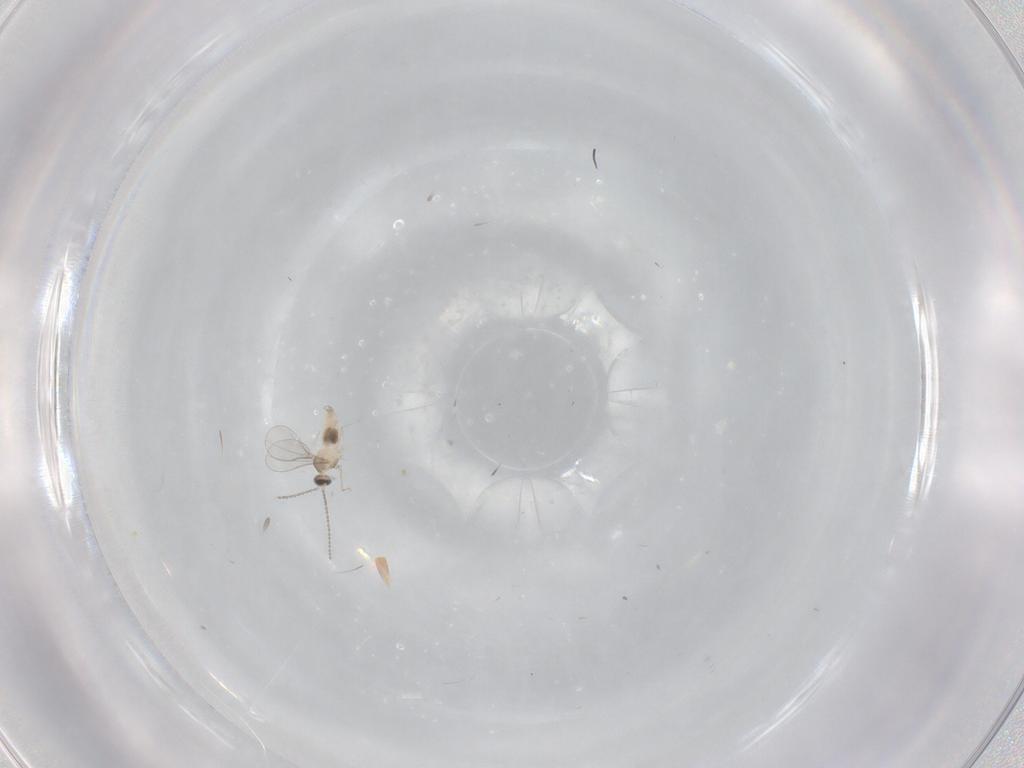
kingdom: Animalia
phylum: Arthropoda
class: Insecta
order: Diptera
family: Cecidomyiidae
